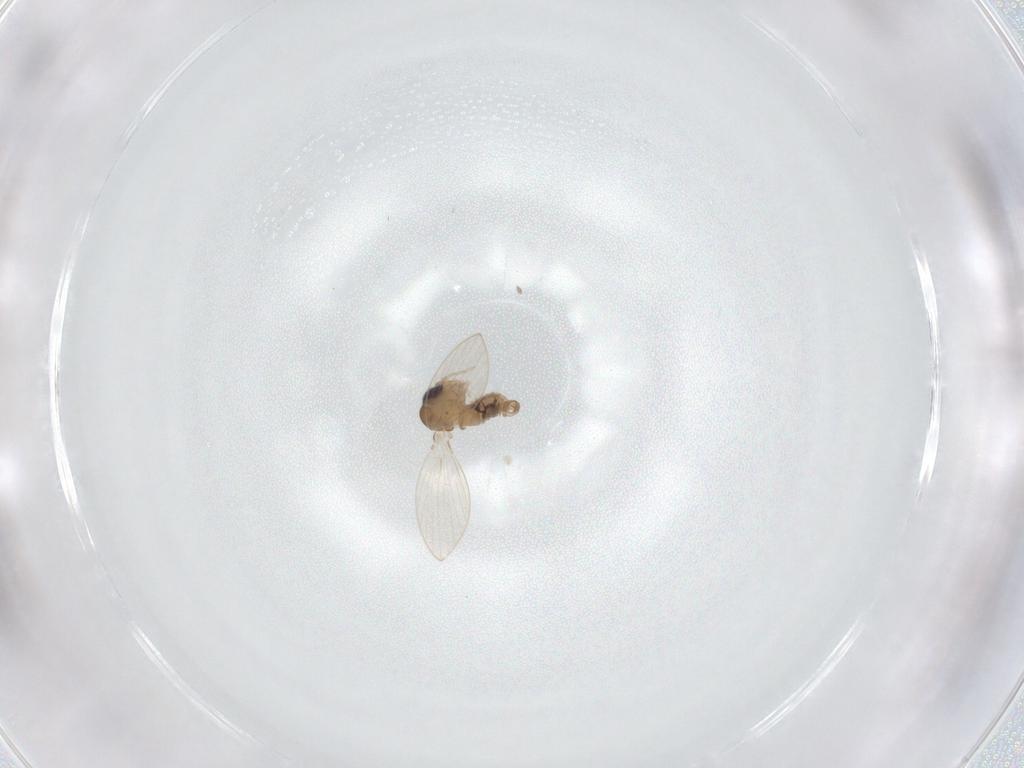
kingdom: Animalia
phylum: Arthropoda
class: Insecta
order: Diptera
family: Psychodidae
